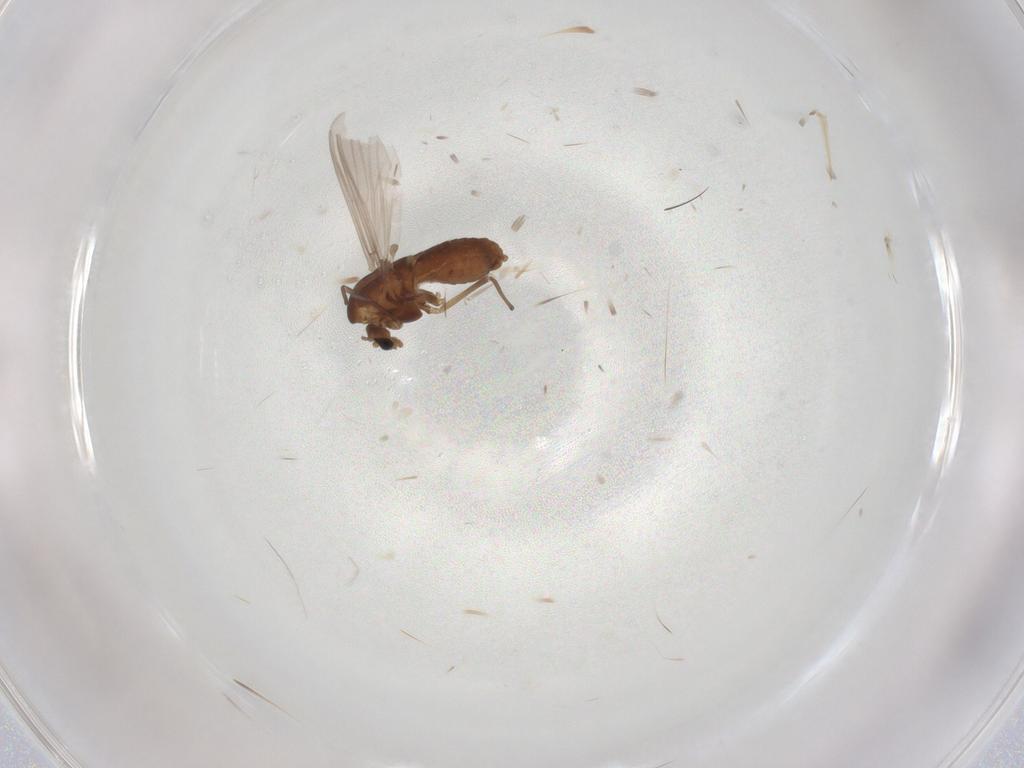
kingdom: Animalia
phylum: Arthropoda
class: Insecta
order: Diptera
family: Chironomidae
